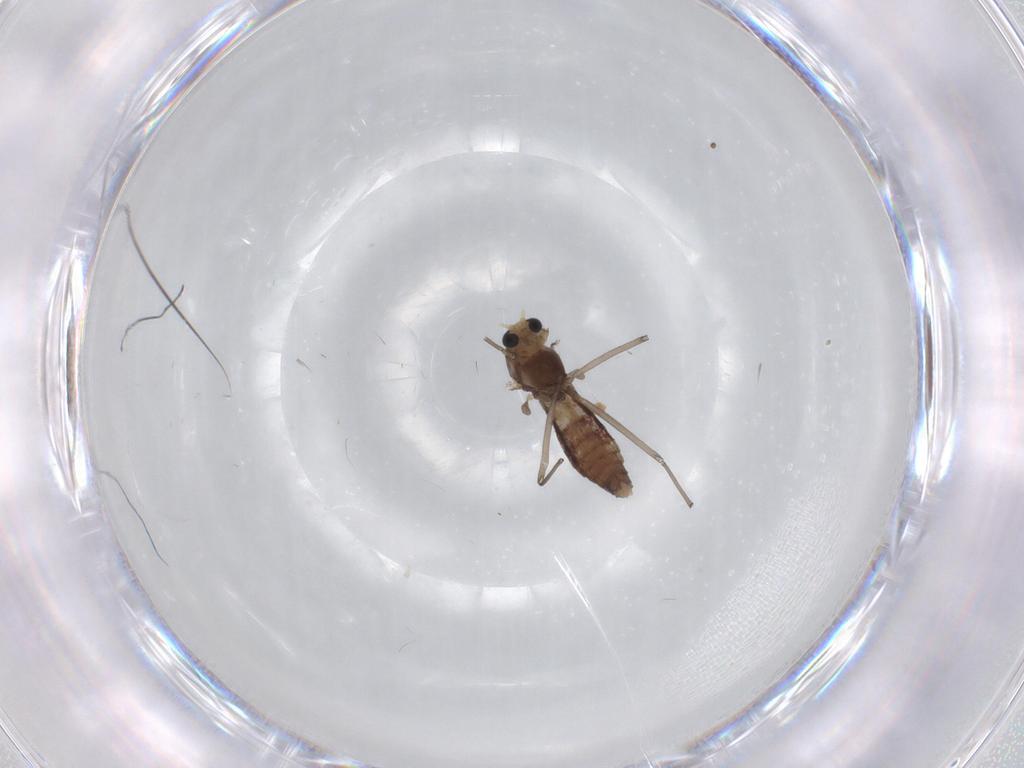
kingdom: Animalia
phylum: Arthropoda
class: Insecta
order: Diptera
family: Chironomidae
